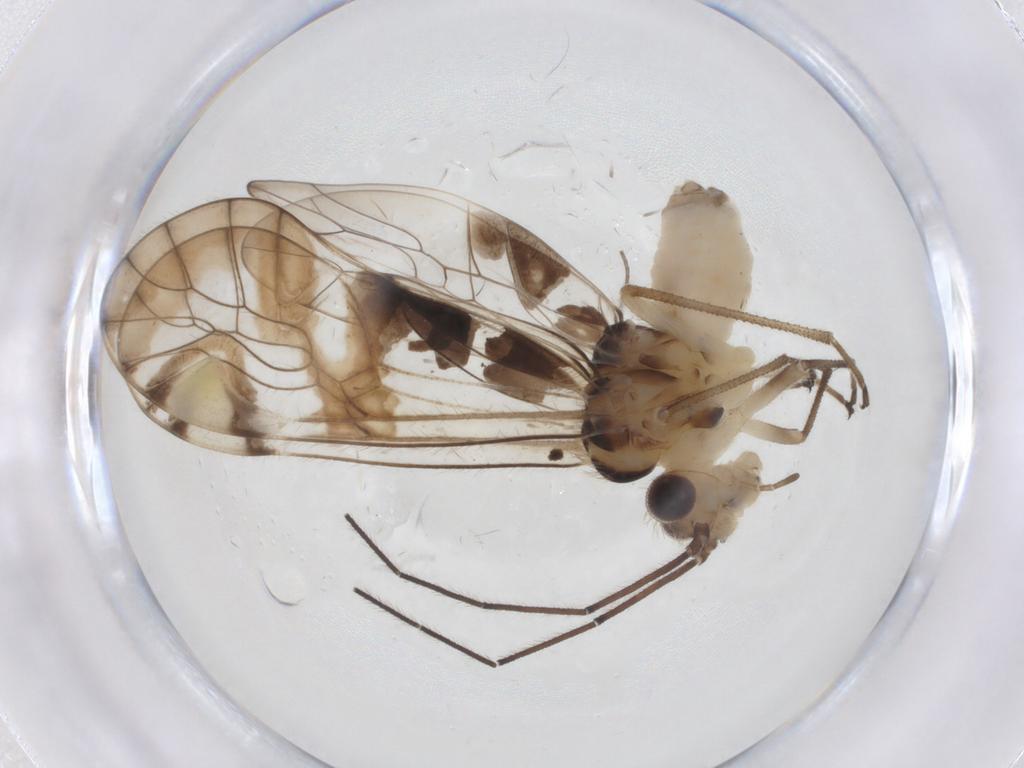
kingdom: Animalia
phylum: Arthropoda
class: Insecta
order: Psocodea
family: Amphipsocidae
